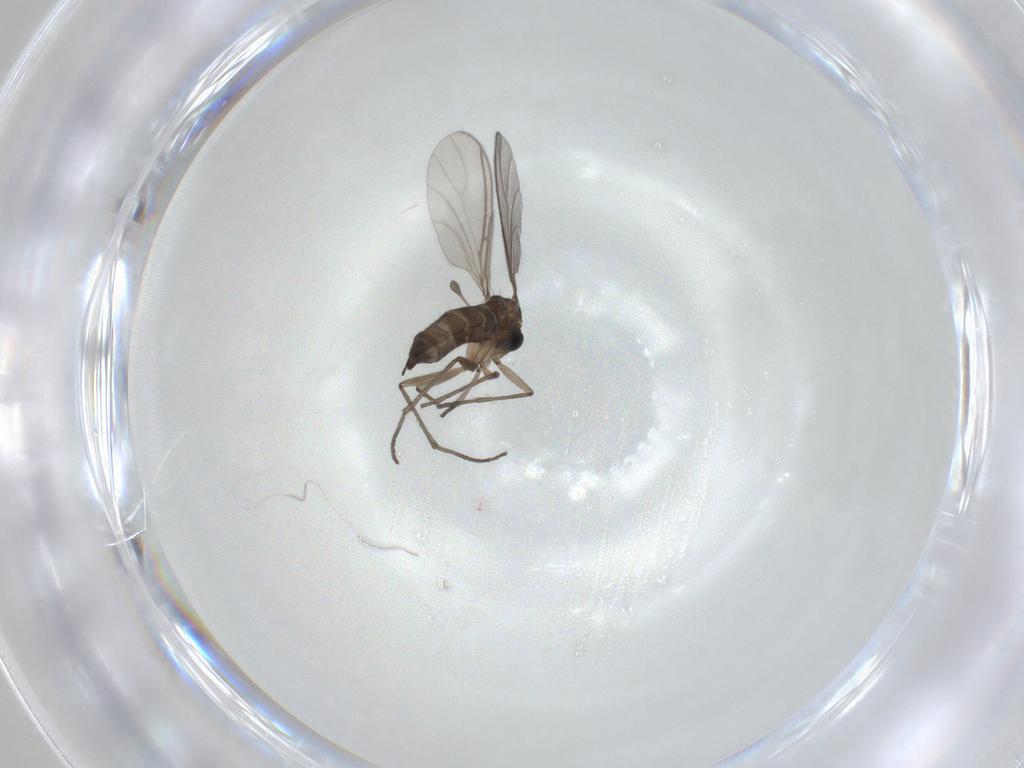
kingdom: Animalia
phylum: Arthropoda
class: Insecta
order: Diptera
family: Sciaridae
